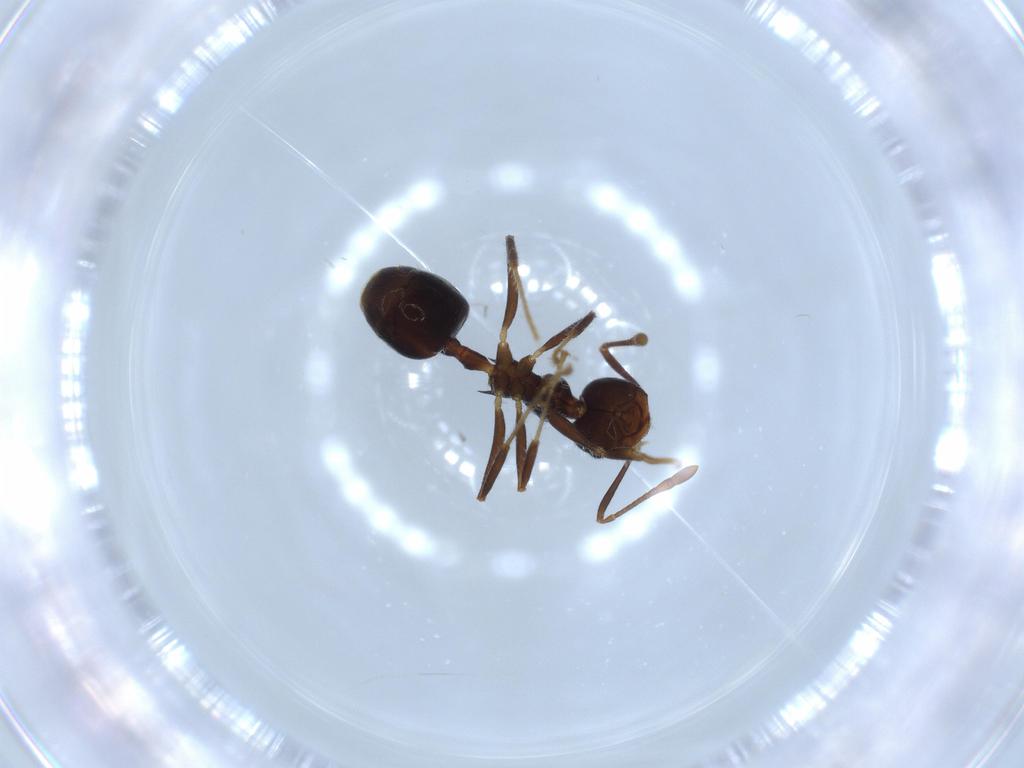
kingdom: Animalia
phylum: Arthropoda
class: Insecta
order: Hymenoptera
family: Formicidae
